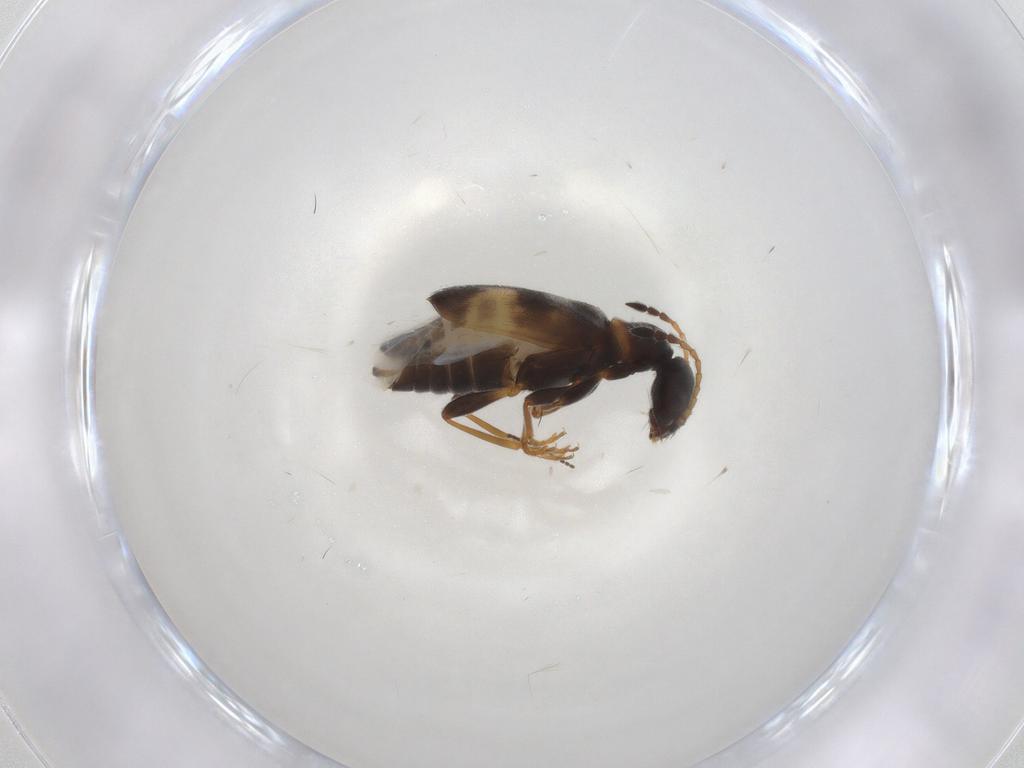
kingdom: Animalia
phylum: Arthropoda
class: Insecta
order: Coleoptera
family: Anthicidae
